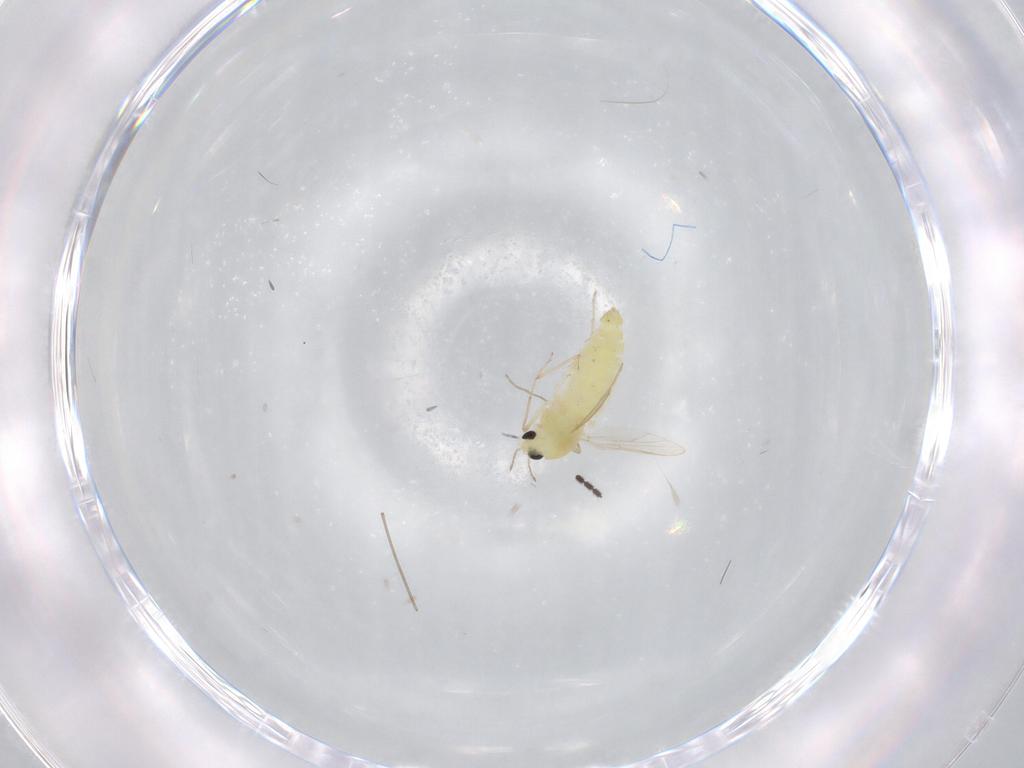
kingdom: Animalia
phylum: Arthropoda
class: Insecta
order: Diptera
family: Chironomidae
